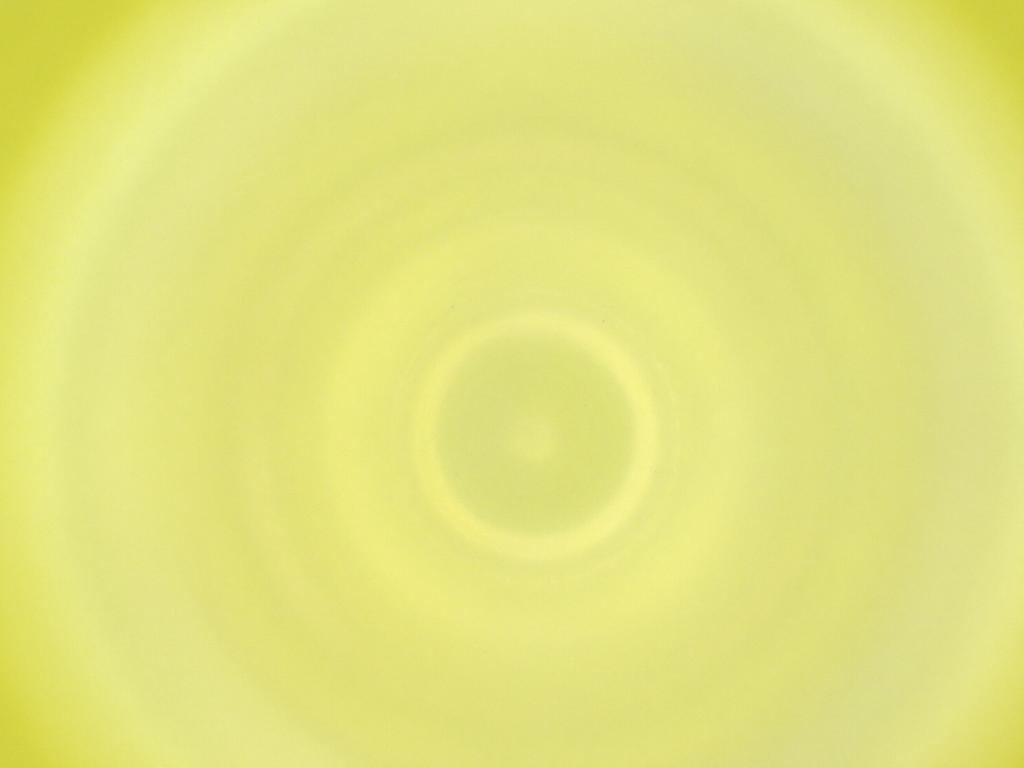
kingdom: Animalia
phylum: Arthropoda
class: Insecta
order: Diptera
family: Cecidomyiidae
